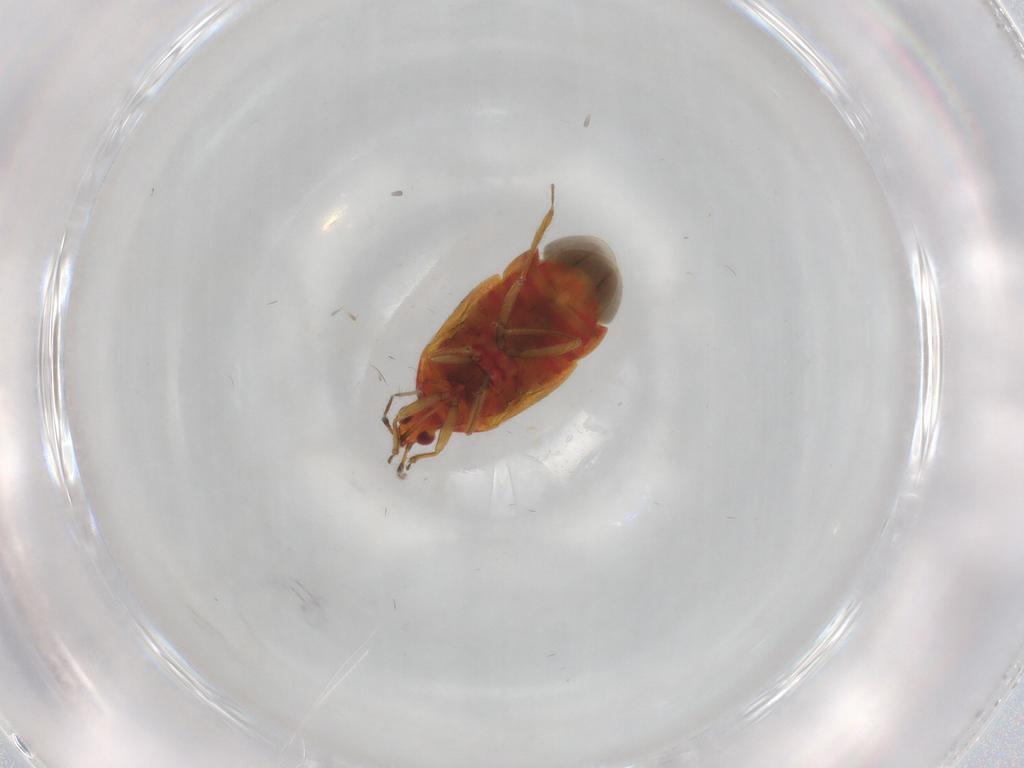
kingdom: Animalia
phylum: Arthropoda
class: Insecta
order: Hemiptera
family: Anthocoridae
